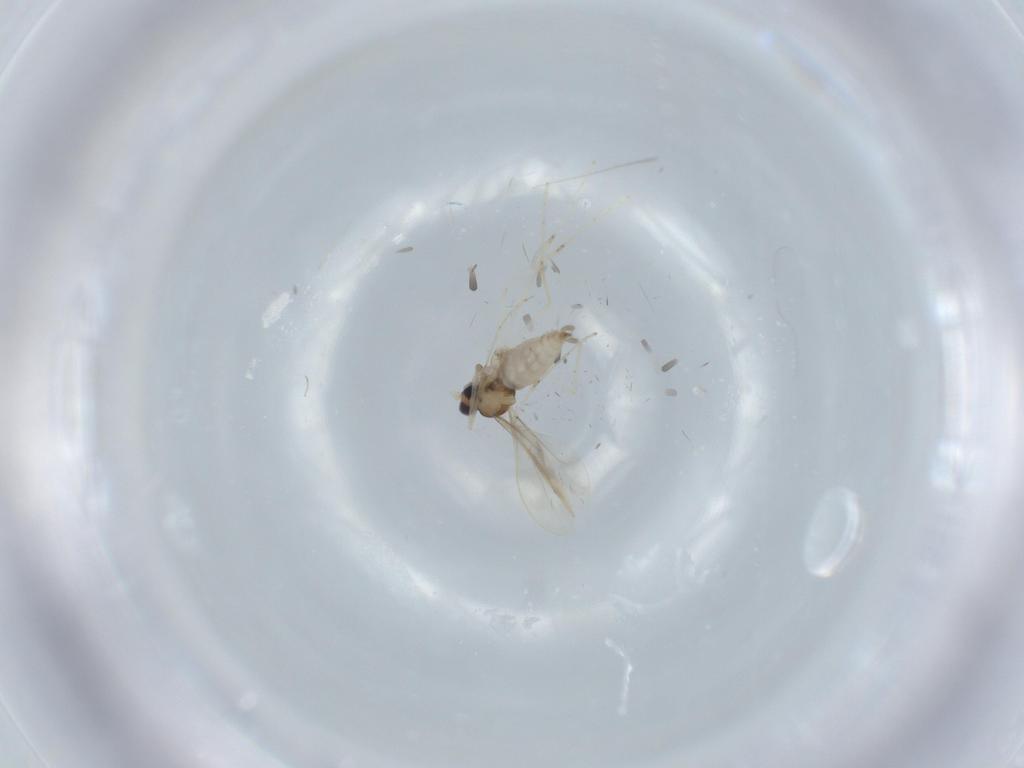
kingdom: Animalia
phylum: Arthropoda
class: Insecta
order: Diptera
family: Cecidomyiidae
